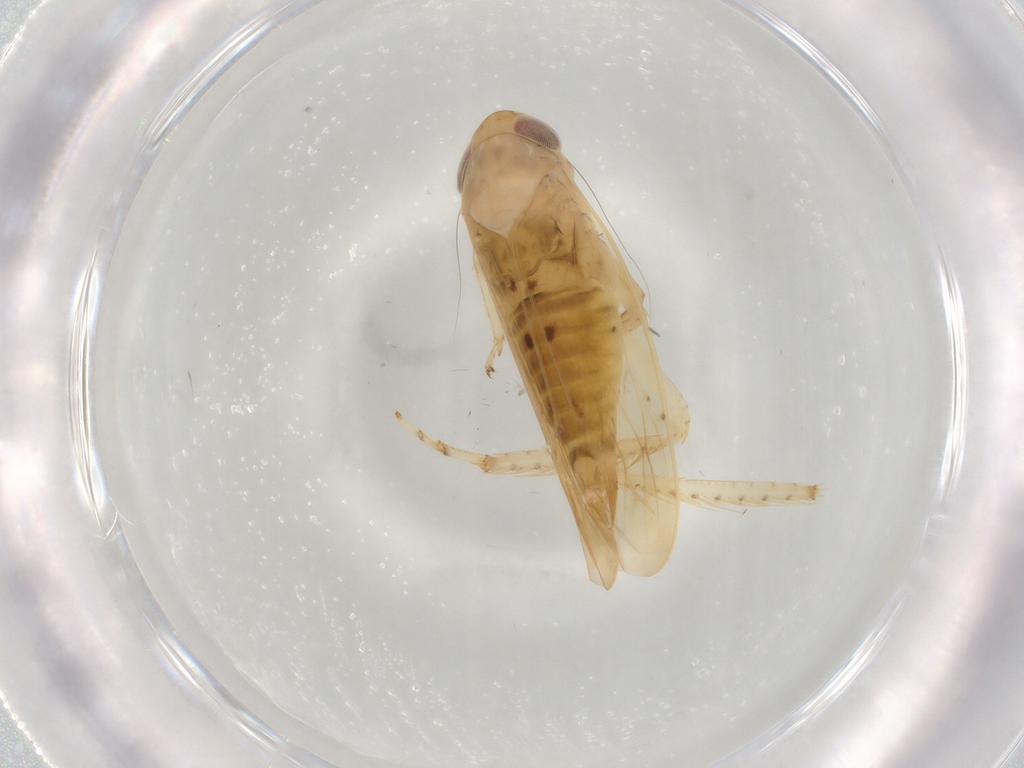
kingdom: Animalia
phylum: Arthropoda
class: Insecta
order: Hemiptera
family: Cicadellidae
